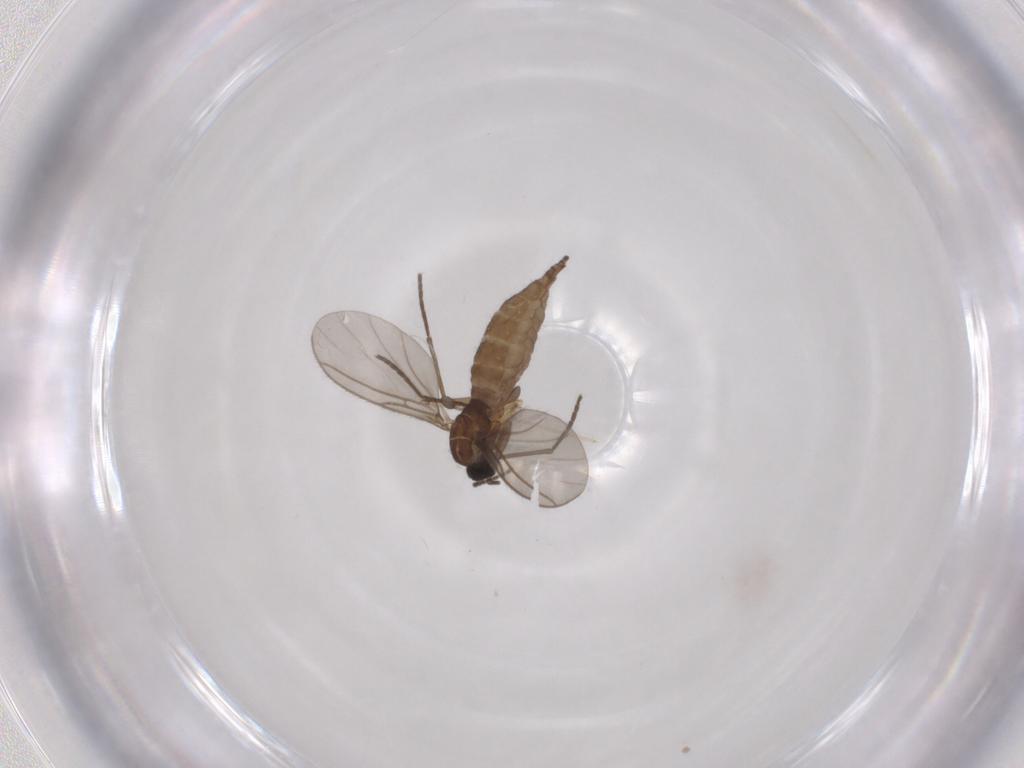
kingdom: Animalia
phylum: Arthropoda
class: Insecta
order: Diptera
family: Sciaridae
